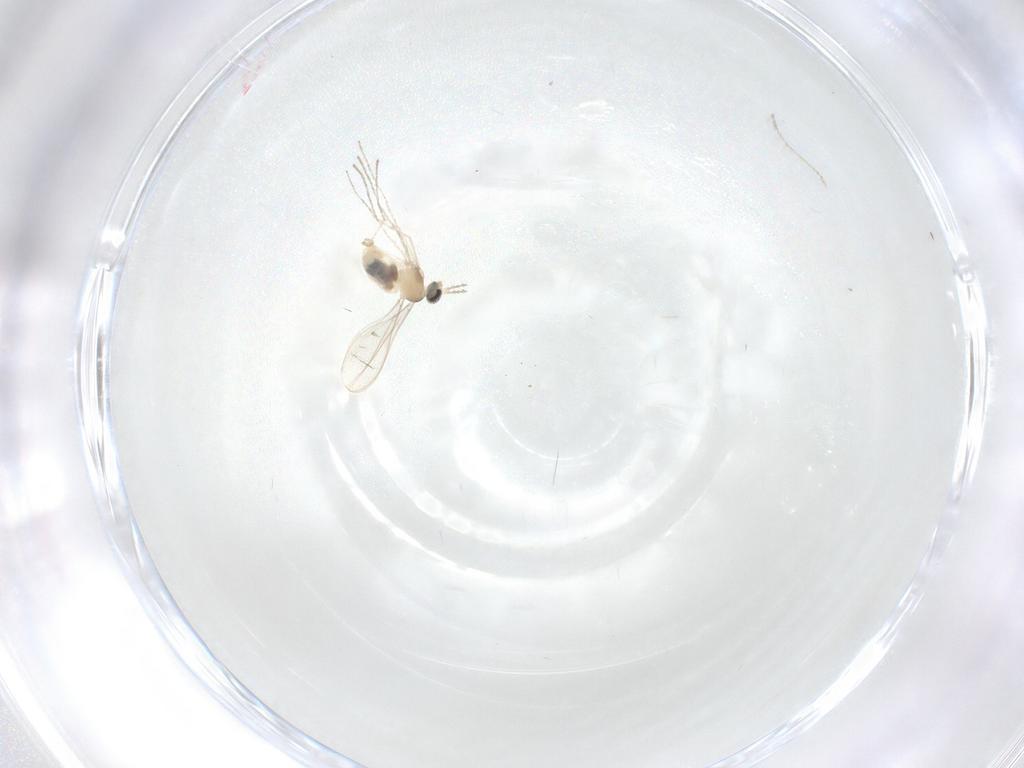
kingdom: Animalia
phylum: Arthropoda
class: Insecta
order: Diptera
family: Cecidomyiidae
